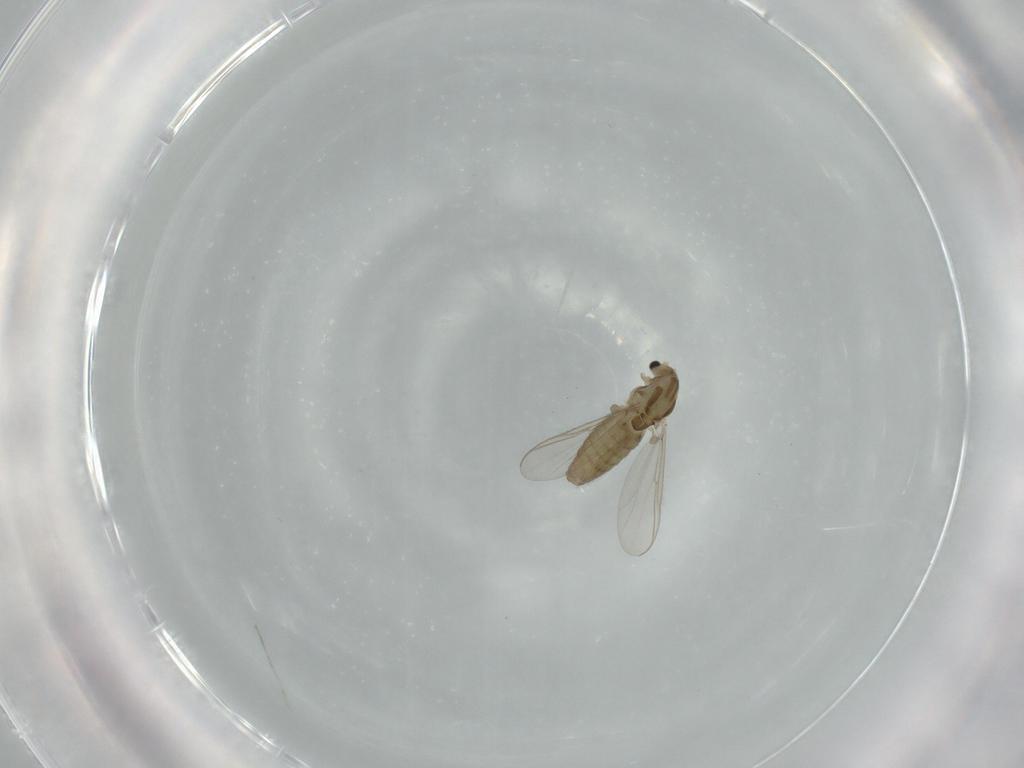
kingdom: Animalia
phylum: Arthropoda
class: Insecta
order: Diptera
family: Chironomidae
